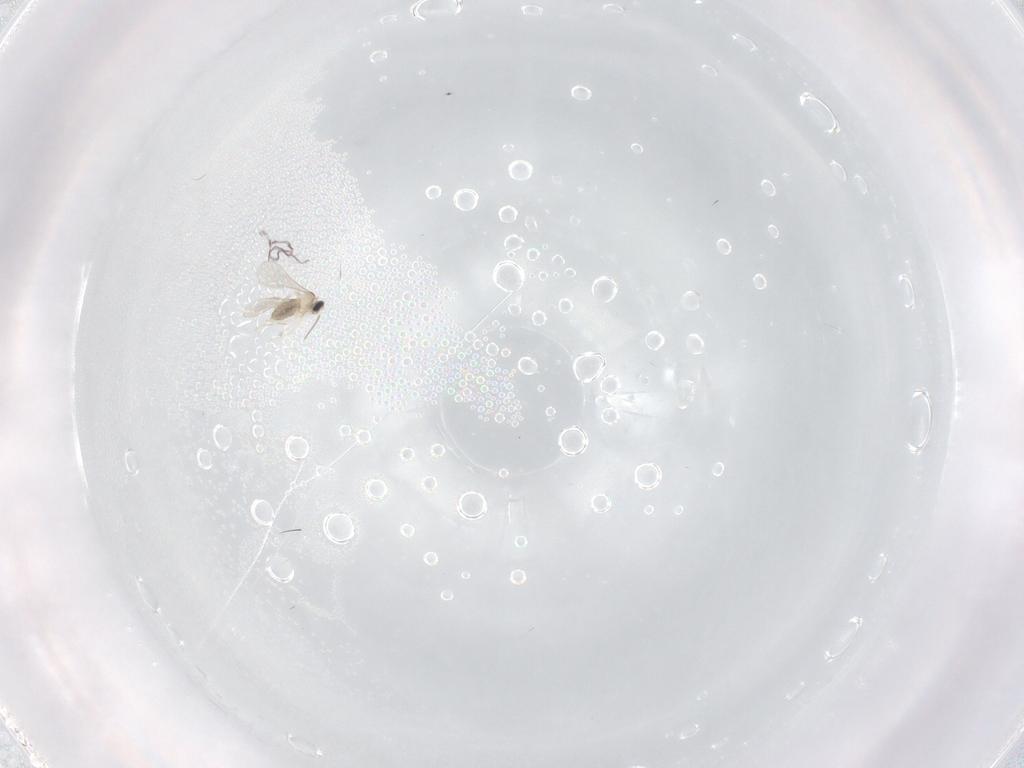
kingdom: Animalia
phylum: Arthropoda
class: Insecta
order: Diptera
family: Cecidomyiidae
